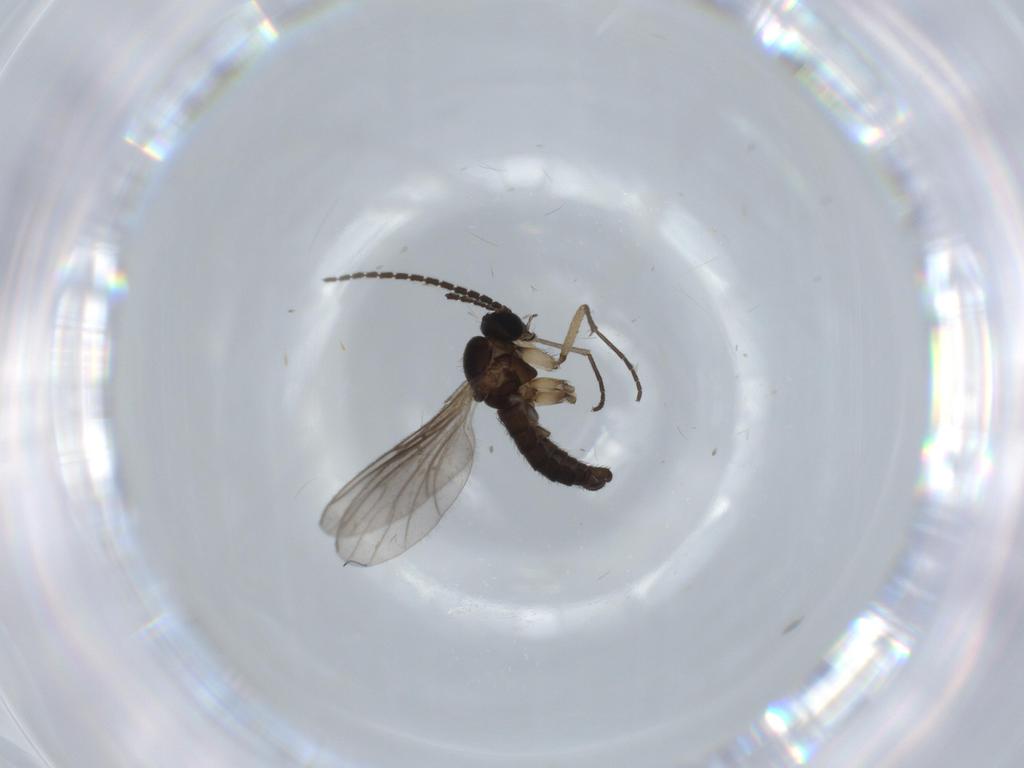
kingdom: Animalia
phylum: Arthropoda
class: Insecta
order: Diptera
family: Sciaridae
